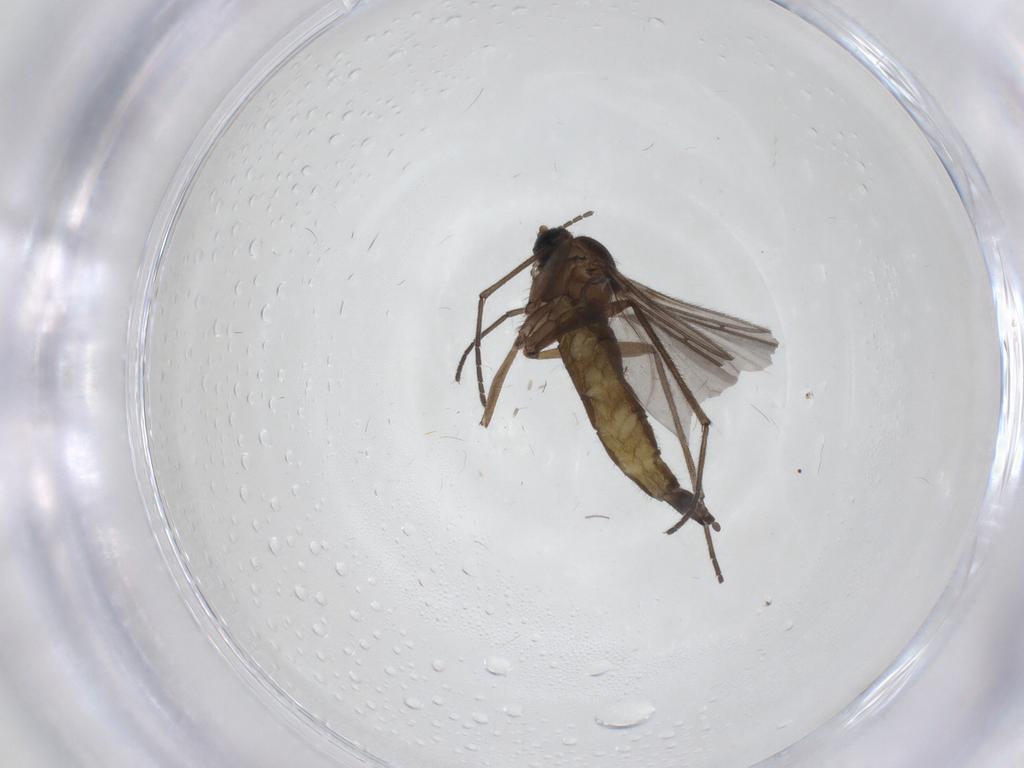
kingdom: Animalia
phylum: Arthropoda
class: Insecta
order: Diptera
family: Sciaridae
